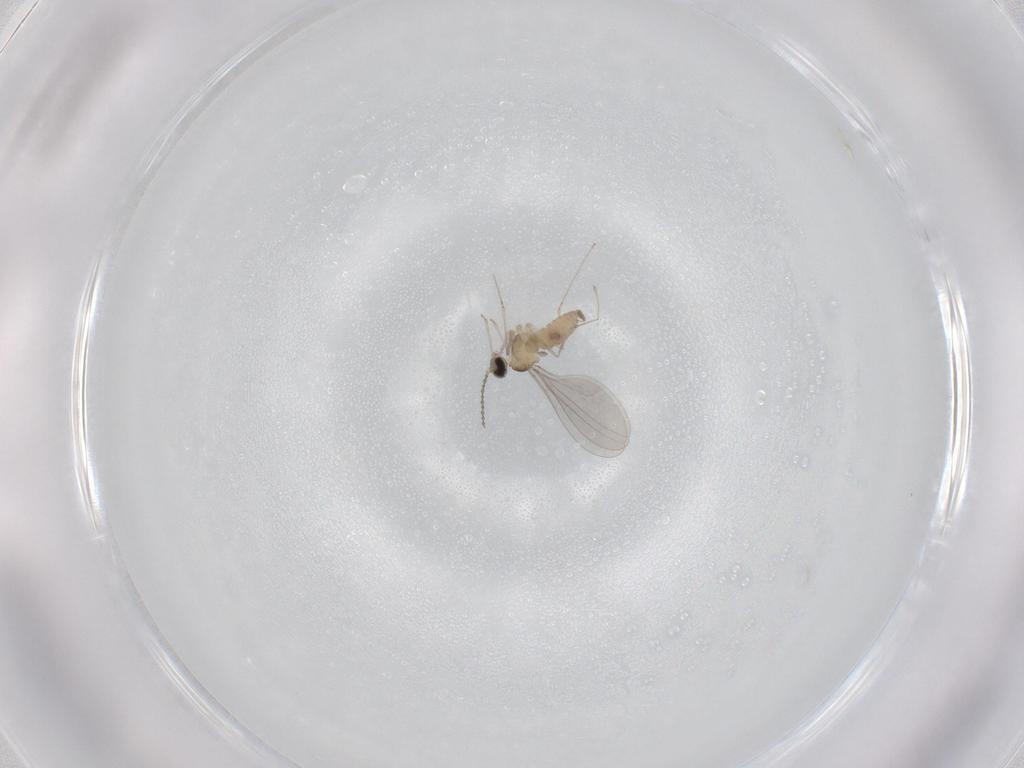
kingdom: Animalia
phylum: Arthropoda
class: Insecta
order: Diptera
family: Cecidomyiidae
